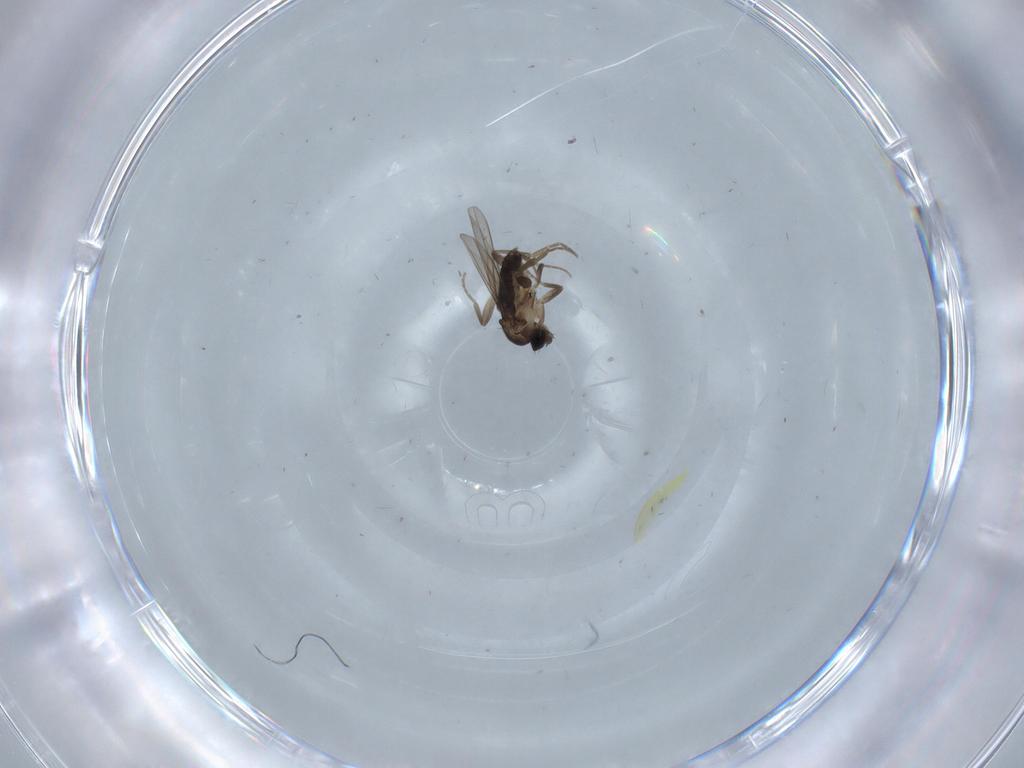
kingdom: Animalia
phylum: Arthropoda
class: Insecta
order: Diptera
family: Phoridae
